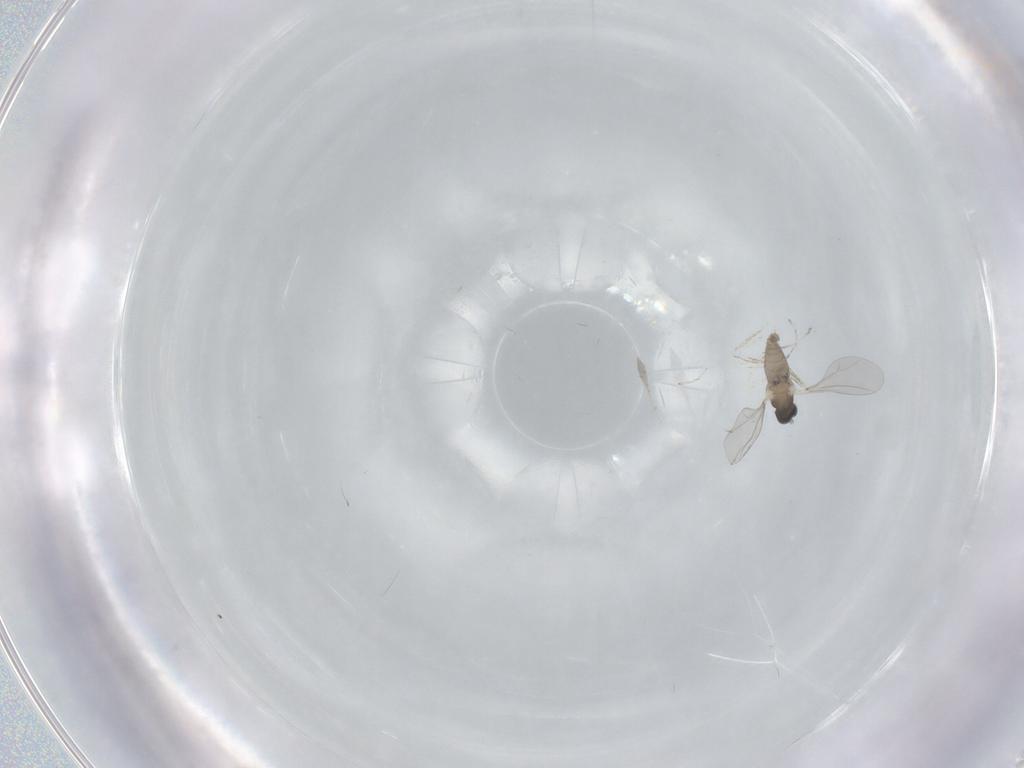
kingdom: Animalia
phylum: Arthropoda
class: Insecta
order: Diptera
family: Cecidomyiidae
